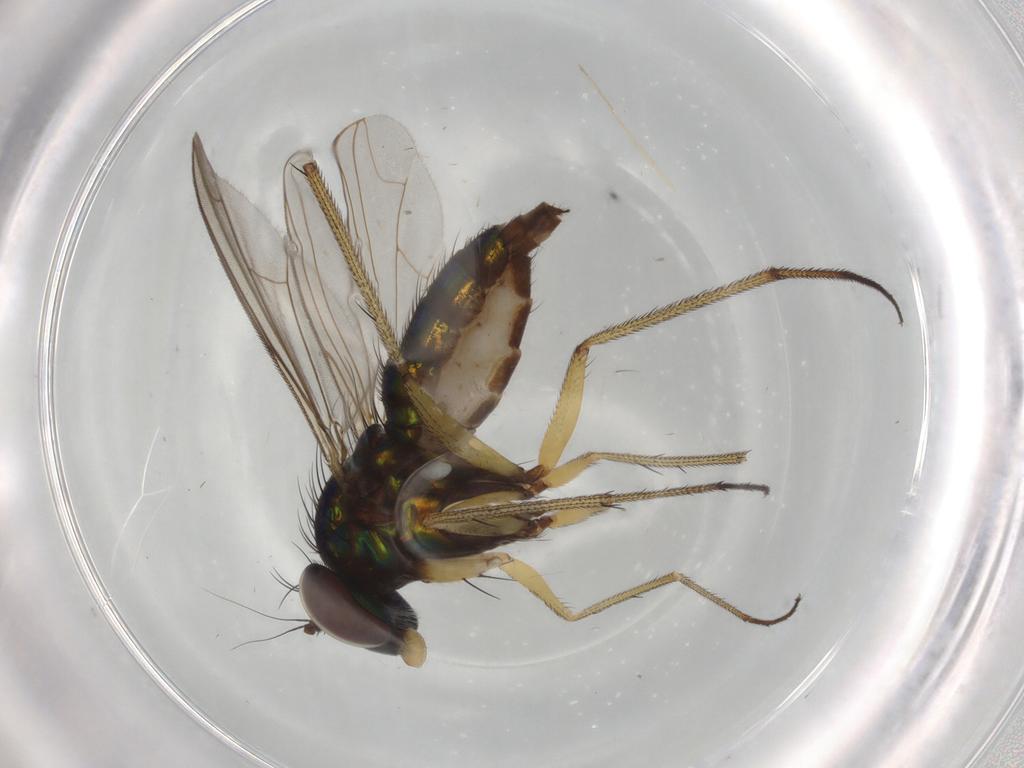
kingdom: Animalia
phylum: Arthropoda
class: Insecta
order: Diptera
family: Dolichopodidae
